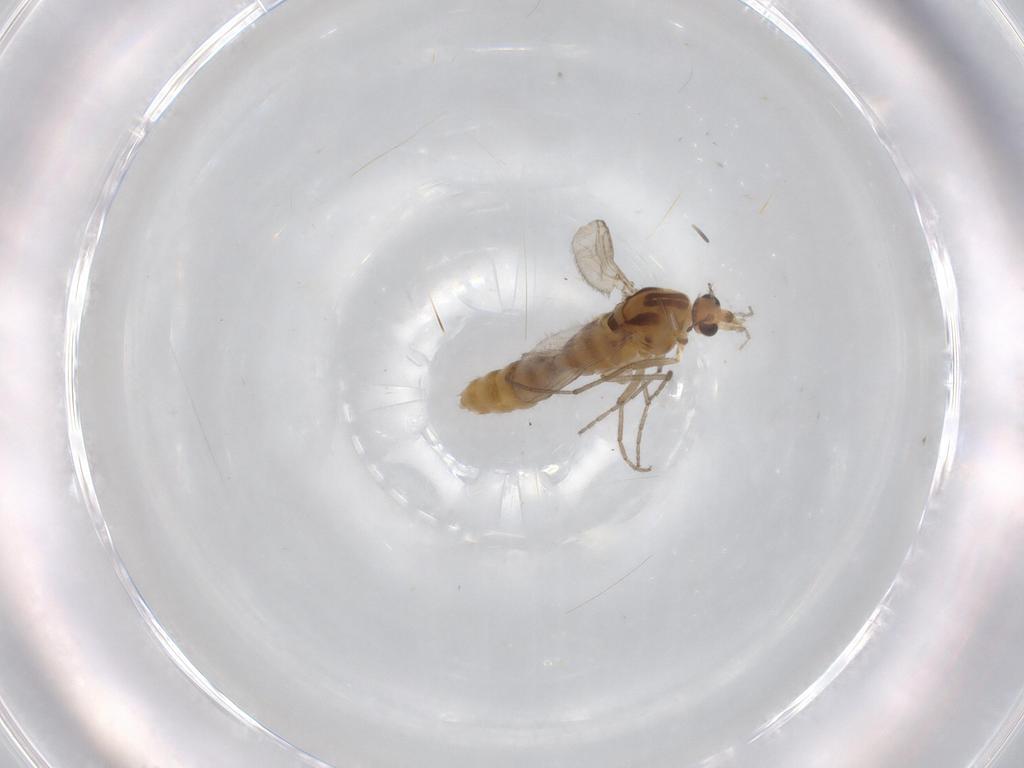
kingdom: Animalia
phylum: Arthropoda
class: Insecta
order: Diptera
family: Chironomidae
